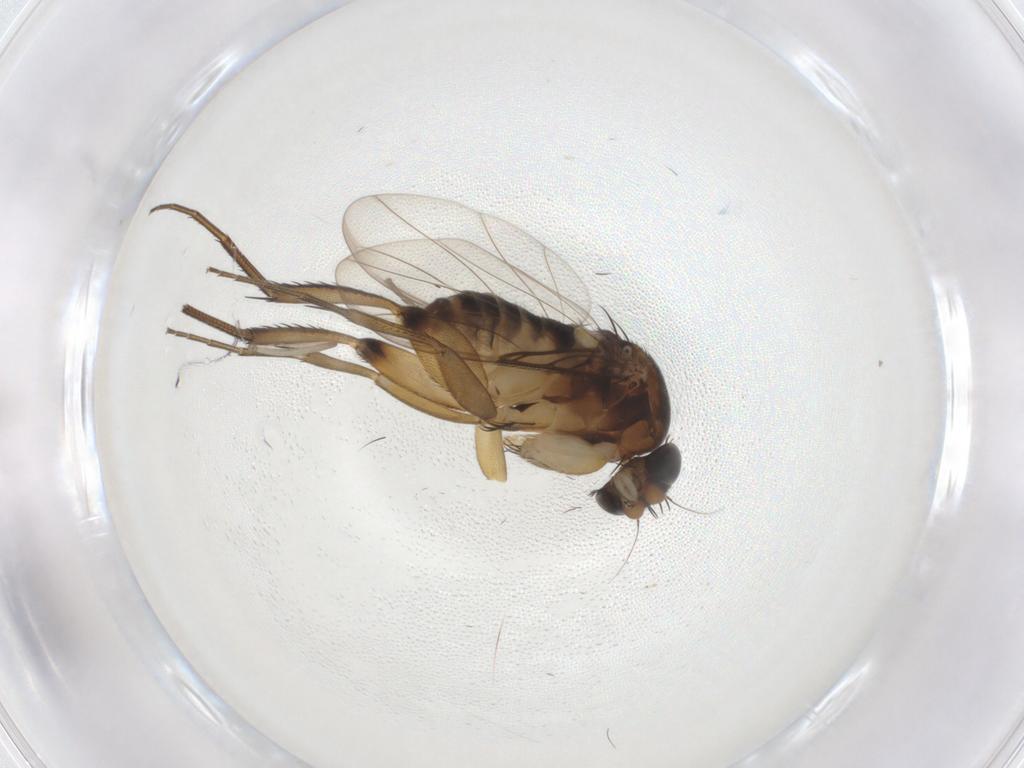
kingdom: Animalia
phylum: Arthropoda
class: Insecta
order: Diptera
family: Phoridae
